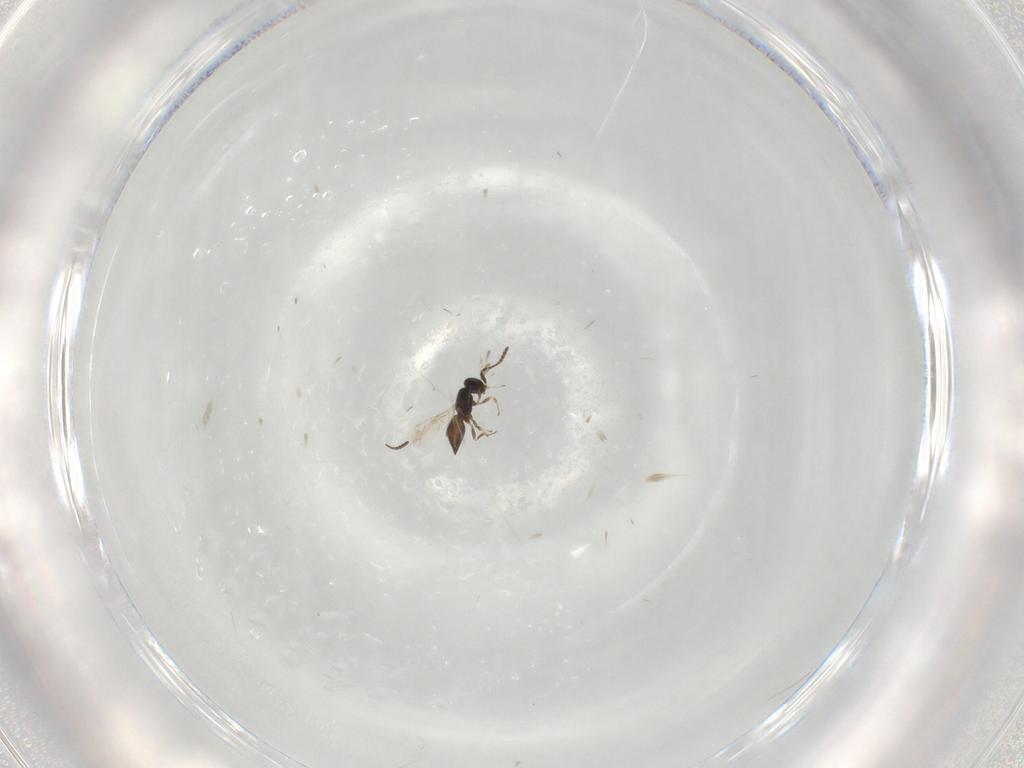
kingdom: Animalia
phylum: Arthropoda
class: Insecta
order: Hymenoptera
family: Scelionidae
